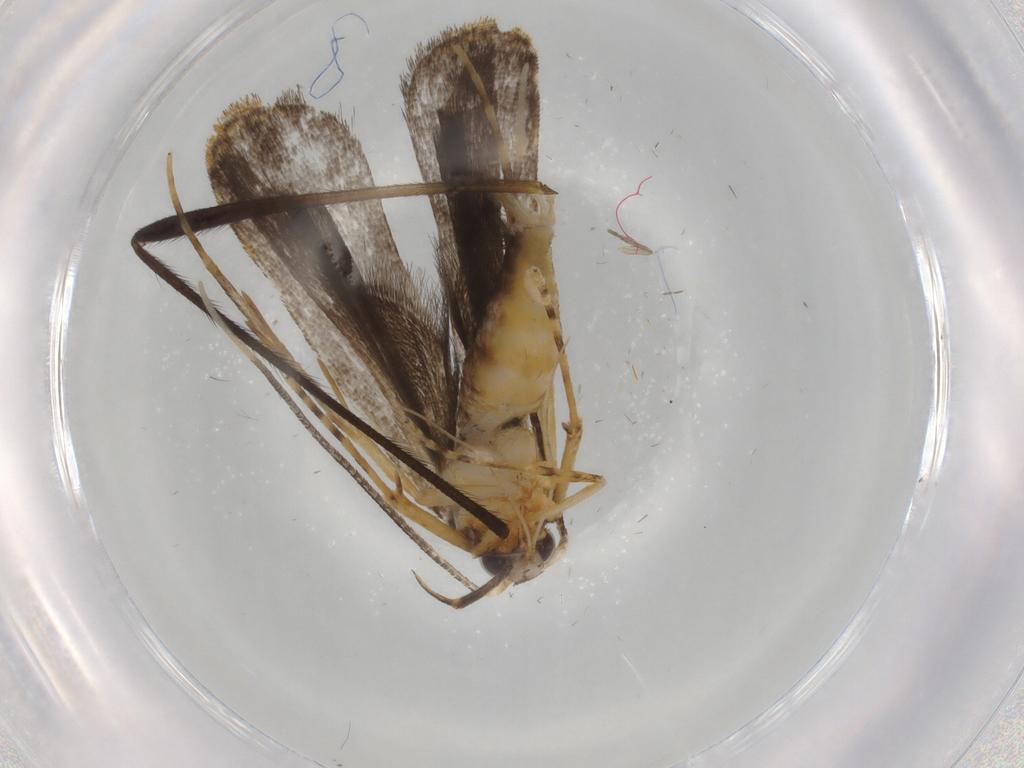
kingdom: Animalia
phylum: Arthropoda
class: Insecta
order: Lepidoptera
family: Cosmopterigidae
